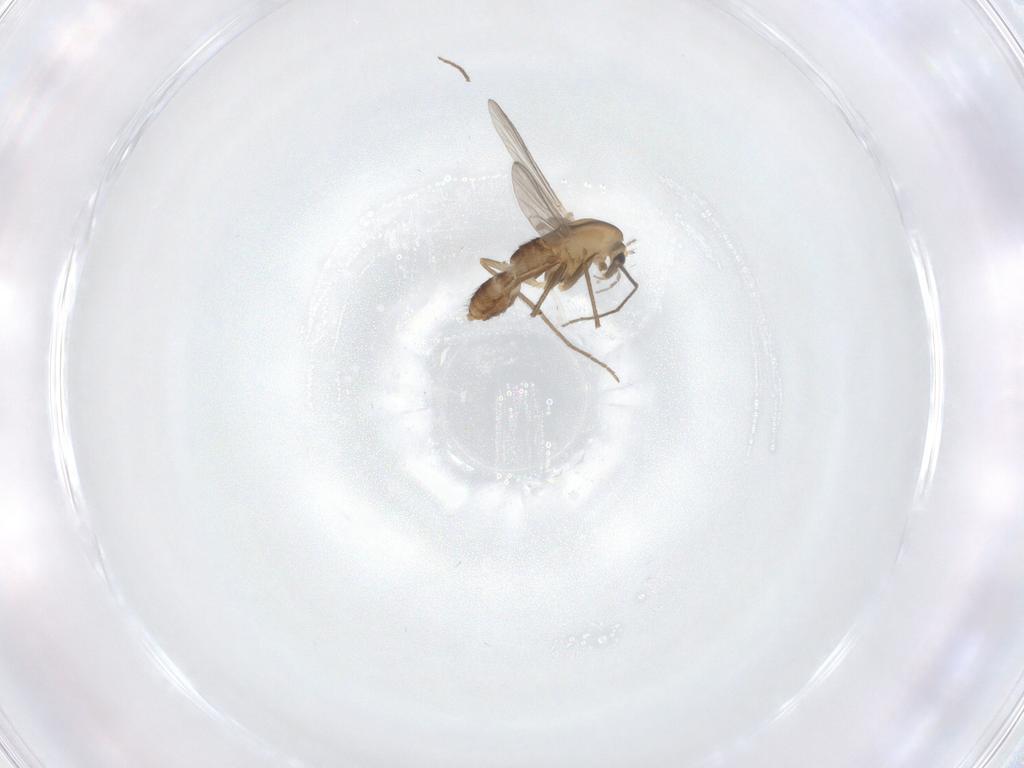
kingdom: Animalia
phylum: Arthropoda
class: Insecta
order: Diptera
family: Chironomidae
